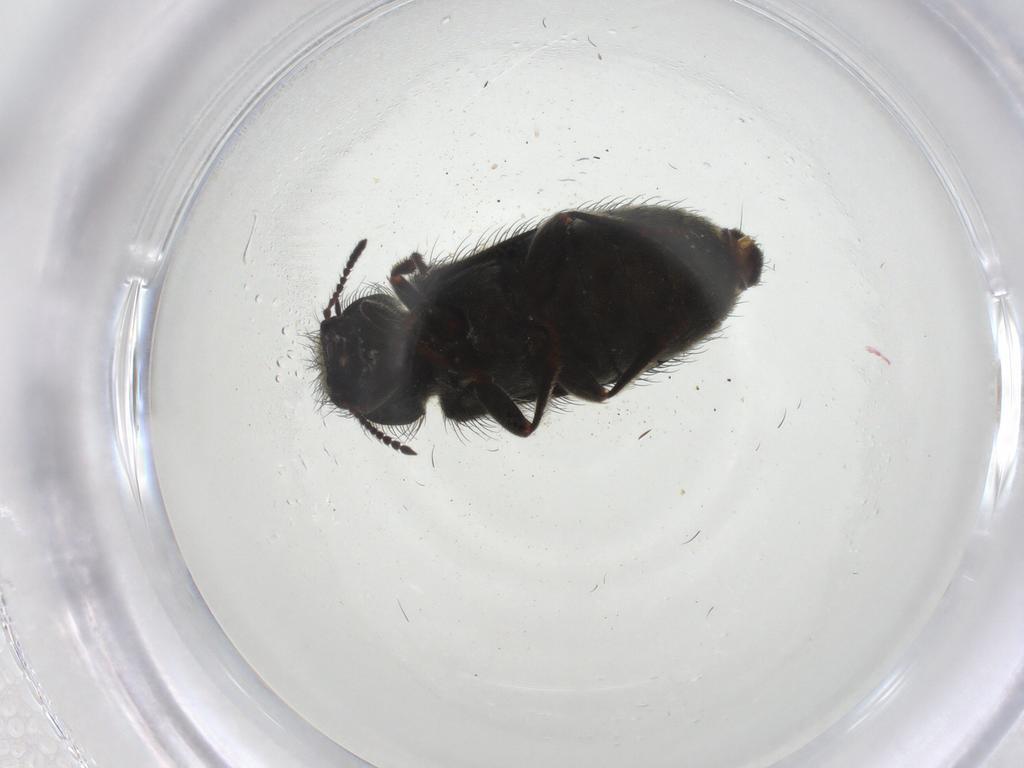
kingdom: Animalia
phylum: Arthropoda
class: Insecta
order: Coleoptera
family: Melyridae
